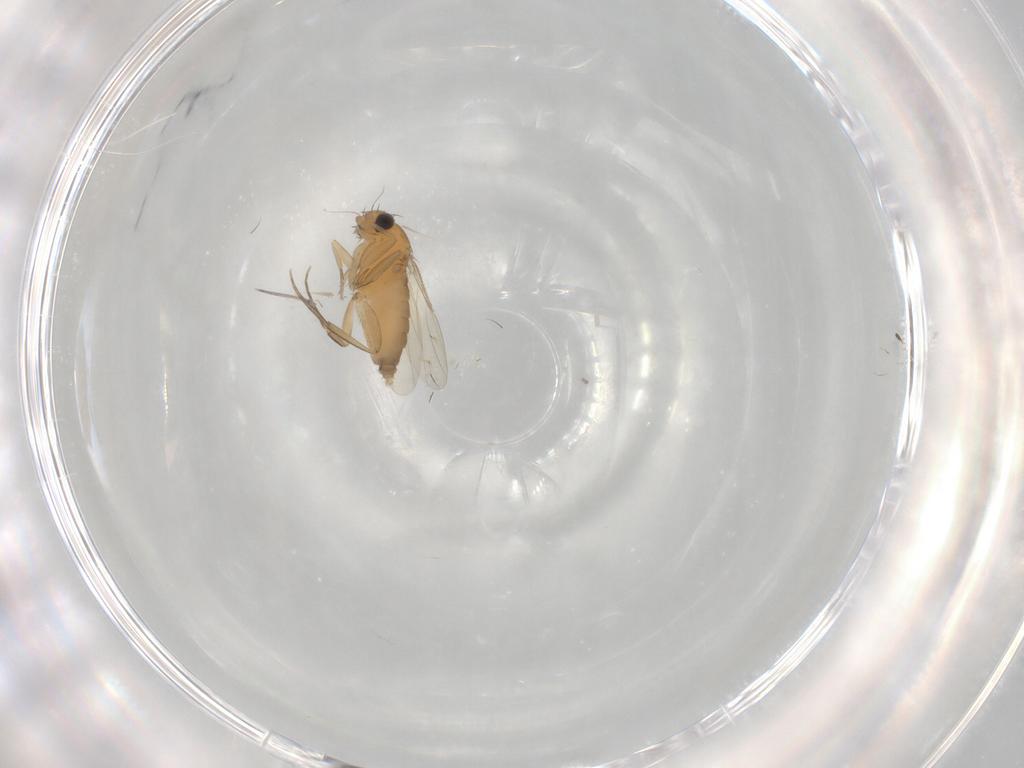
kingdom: Animalia
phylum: Arthropoda
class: Insecta
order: Diptera
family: Phoridae
